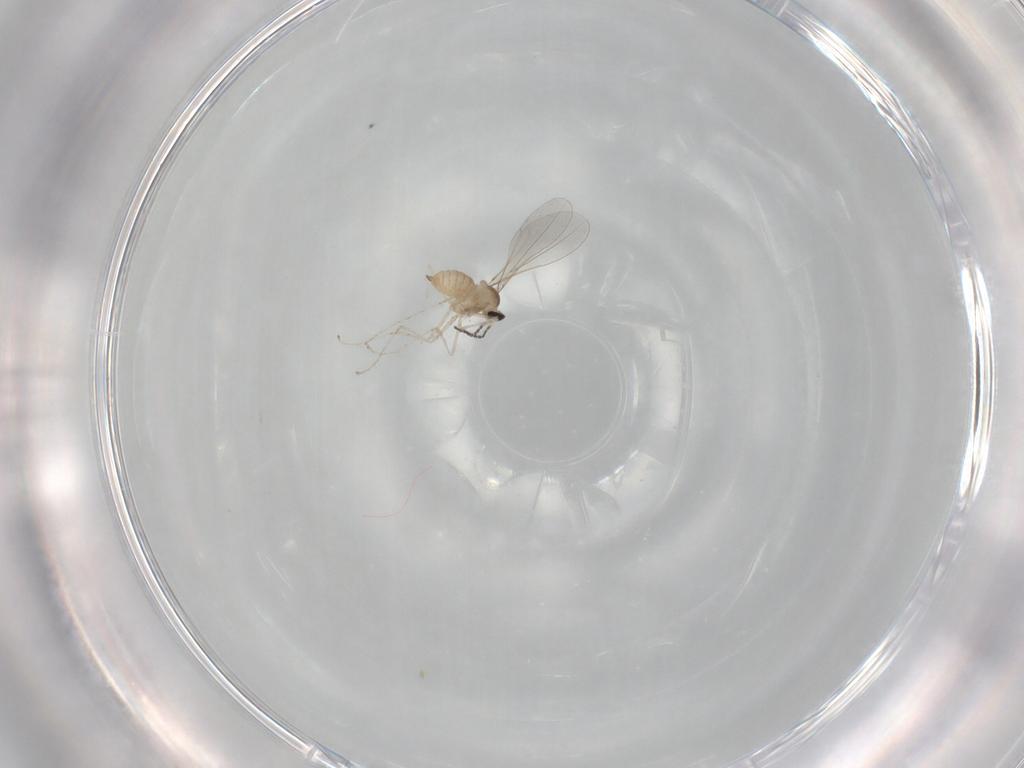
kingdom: Animalia
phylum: Arthropoda
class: Insecta
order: Diptera
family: Cecidomyiidae
